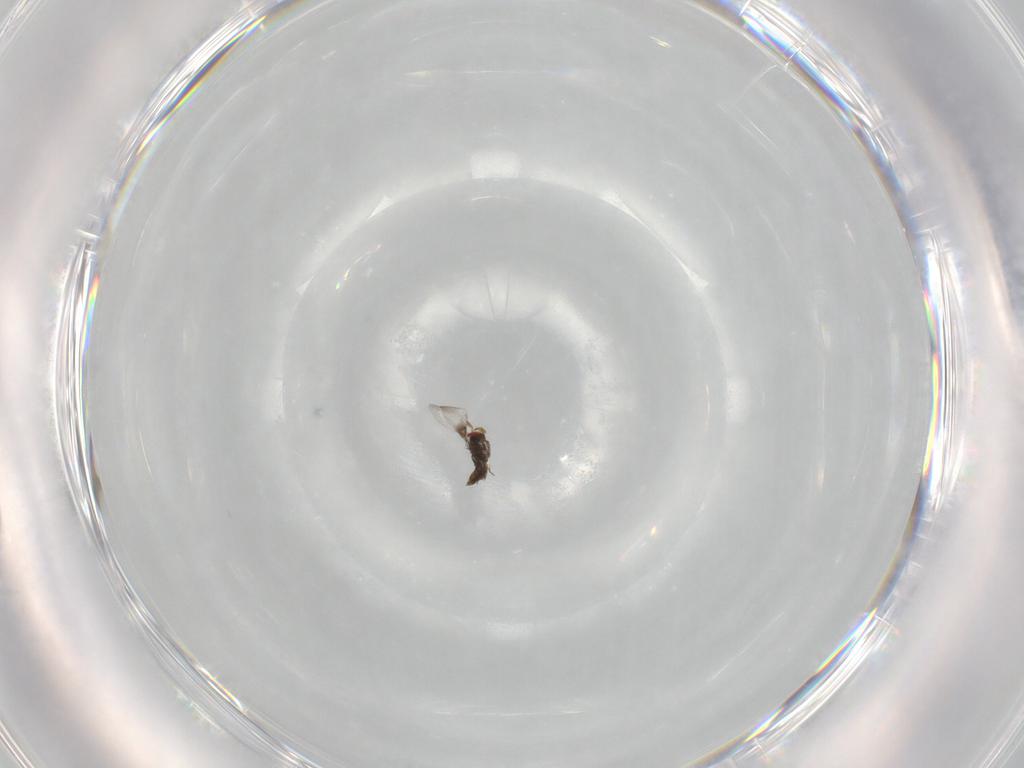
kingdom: Animalia
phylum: Arthropoda
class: Insecta
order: Hymenoptera
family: Trichogrammatidae
